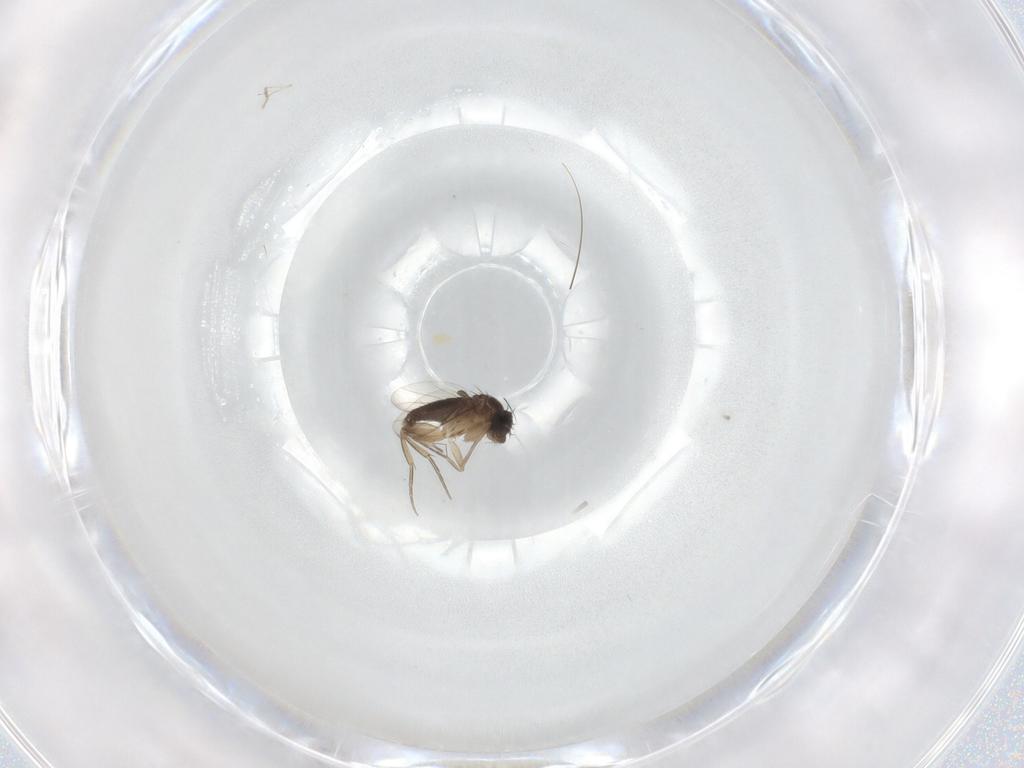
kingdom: Animalia
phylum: Arthropoda
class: Insecta
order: Diptera
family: Phoridae
